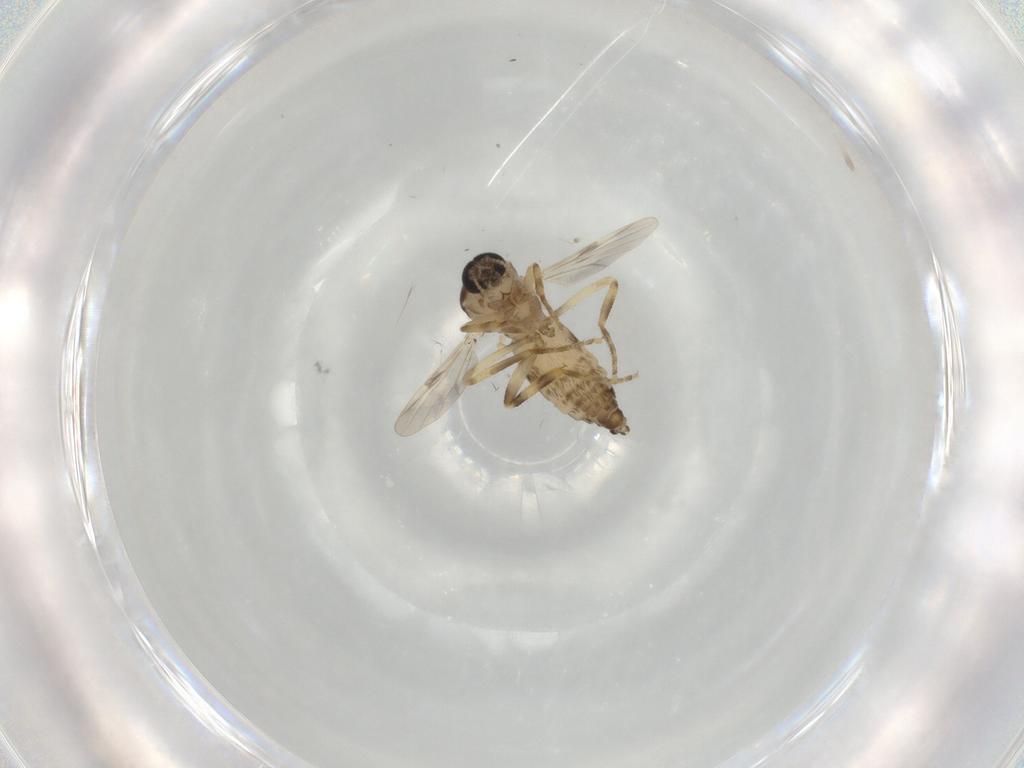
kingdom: Animalia
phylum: Arthropoda
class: Insecta
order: Diptera
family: Ceratopogonidae
